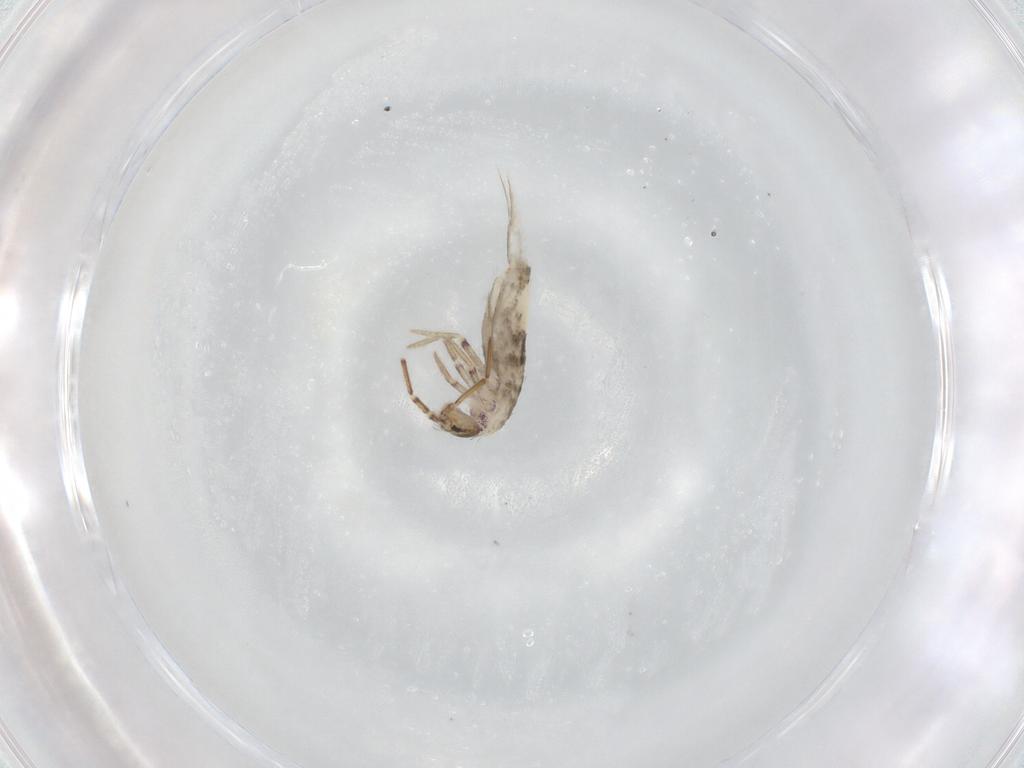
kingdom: Animalia
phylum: Arthropoda
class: Collembola
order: Entomobryomorpha
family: Entomobryidae
